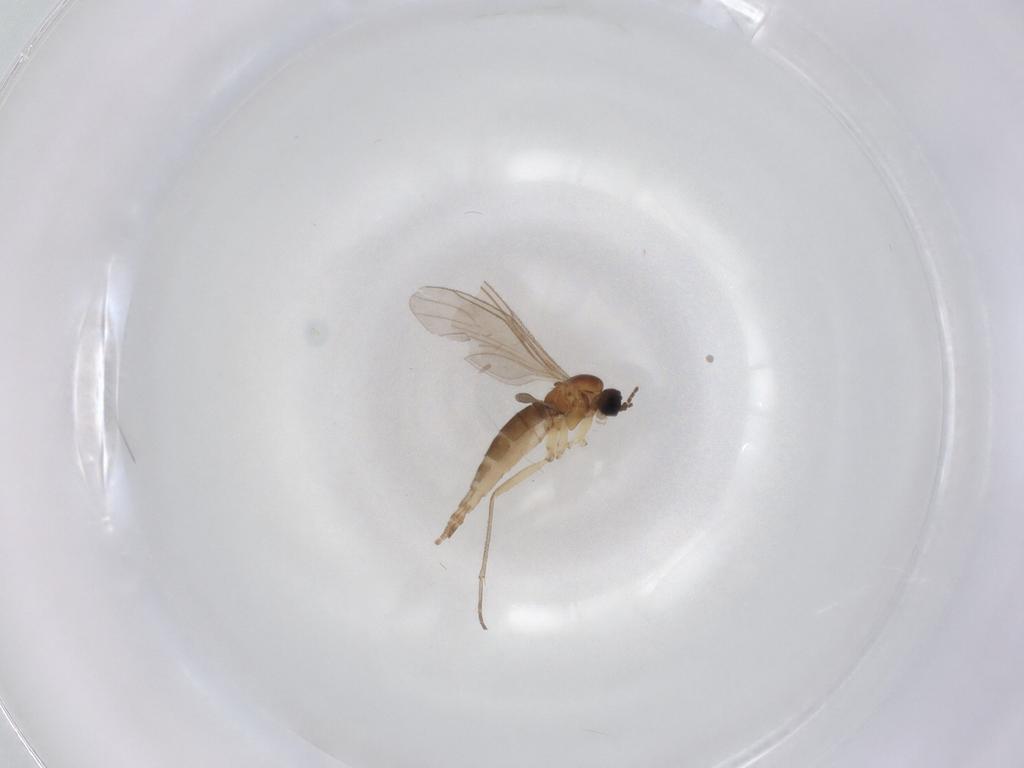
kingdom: Animalia
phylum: Arthropoda
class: Insecta
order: Diptera
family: Sciaridae
